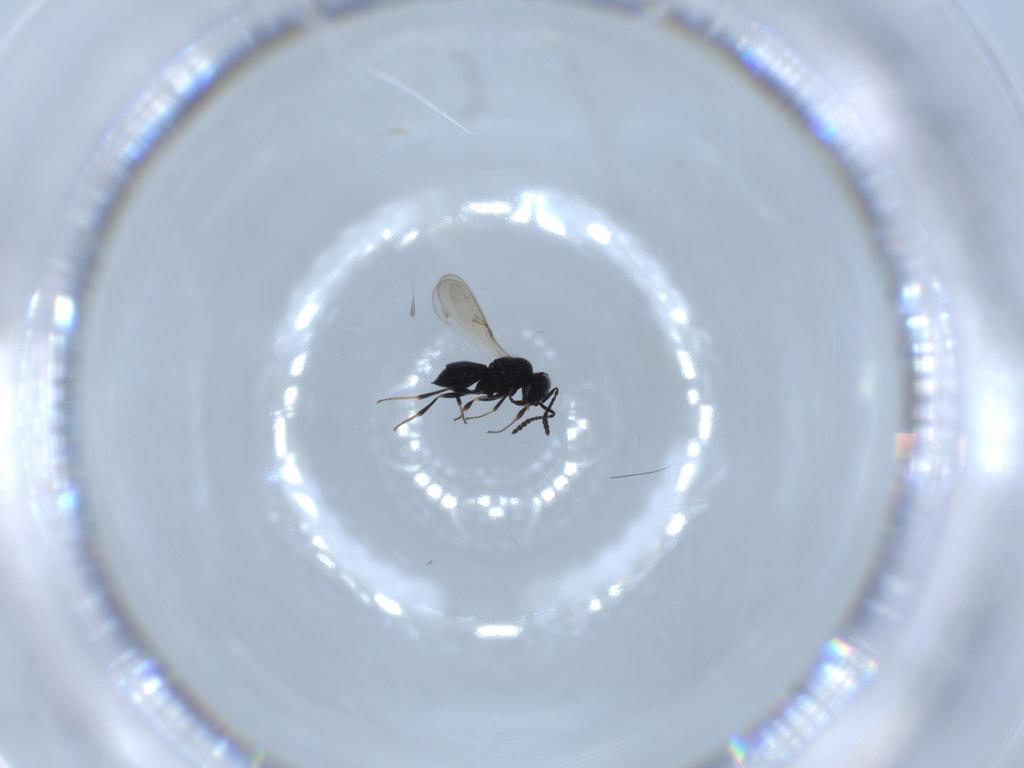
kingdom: Animalia
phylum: Arthropoda
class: Insecta
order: Hymenoptera
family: Scelionidae
